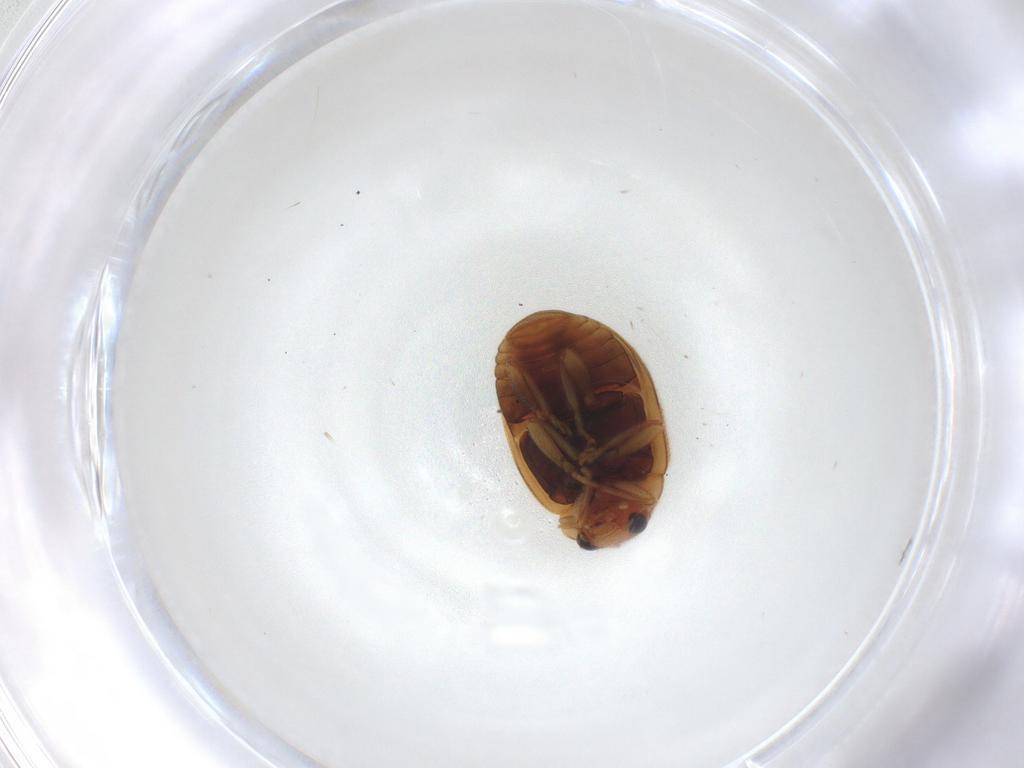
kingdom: Animalia
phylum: Arthropoda
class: Insecta
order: Coleoptera
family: Coccinellidae
